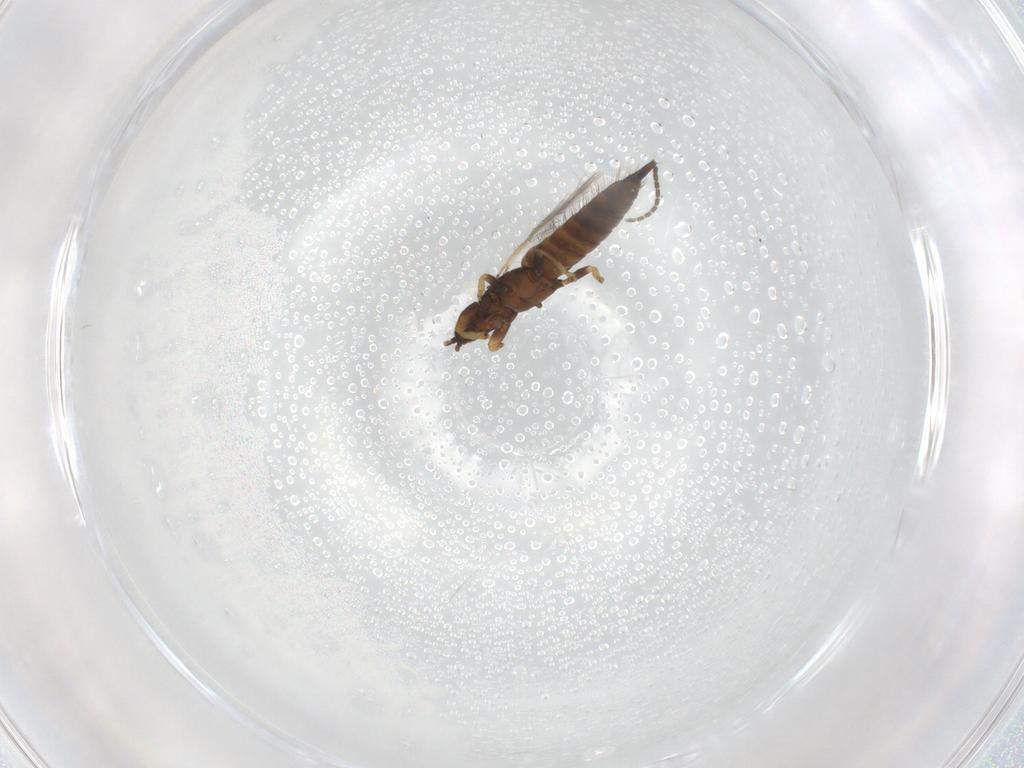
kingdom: Animalia
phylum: Arthropoda
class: Insecta
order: Thysanoptera
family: Phlaeothripidae
